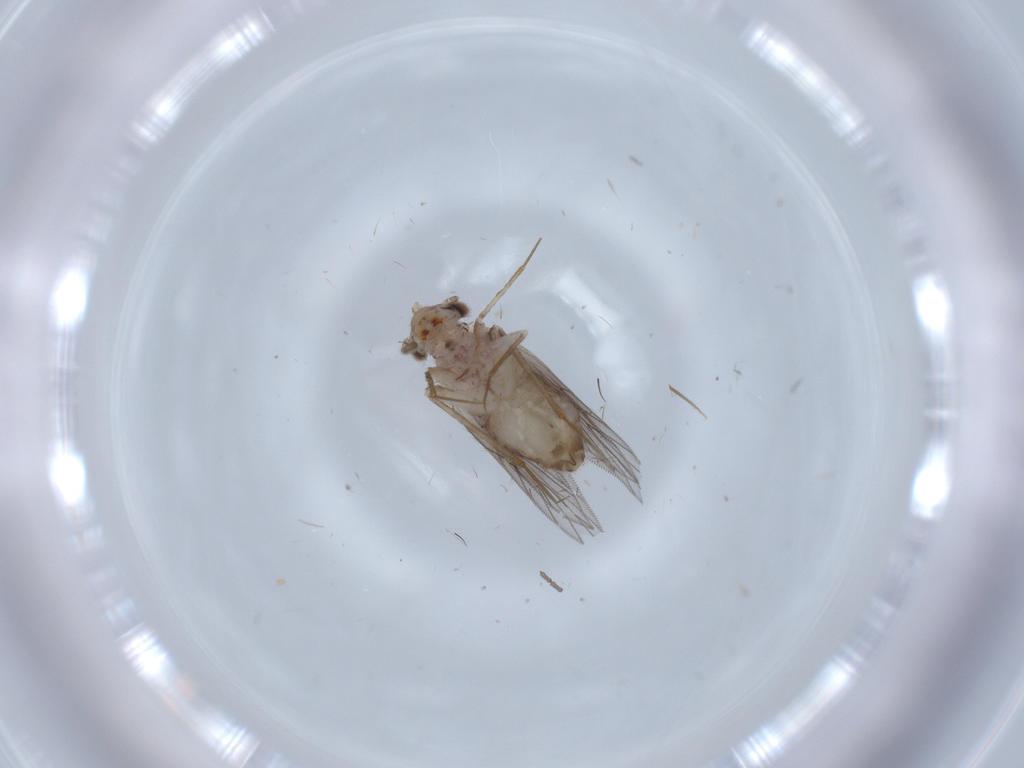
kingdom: Animalia
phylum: Arthropoda
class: Insecta
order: Psocodea
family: Lepidopsocidae
